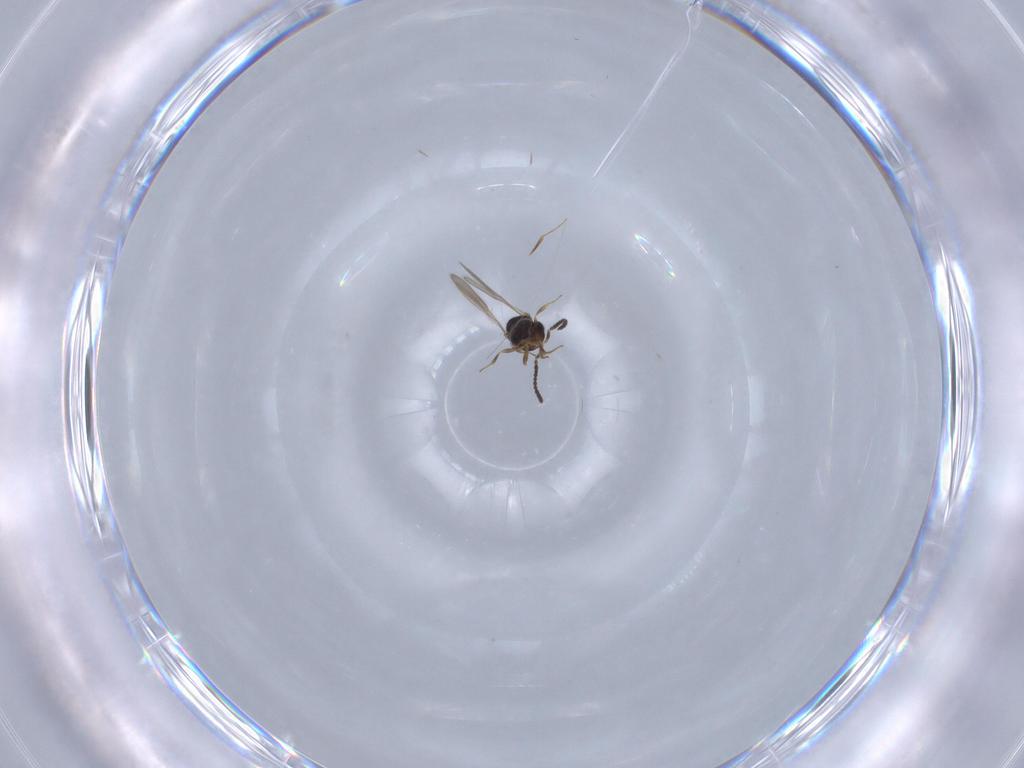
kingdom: Animalia
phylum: Arthropoda
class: Insecta
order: Hymenoptera
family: Scelionidae
